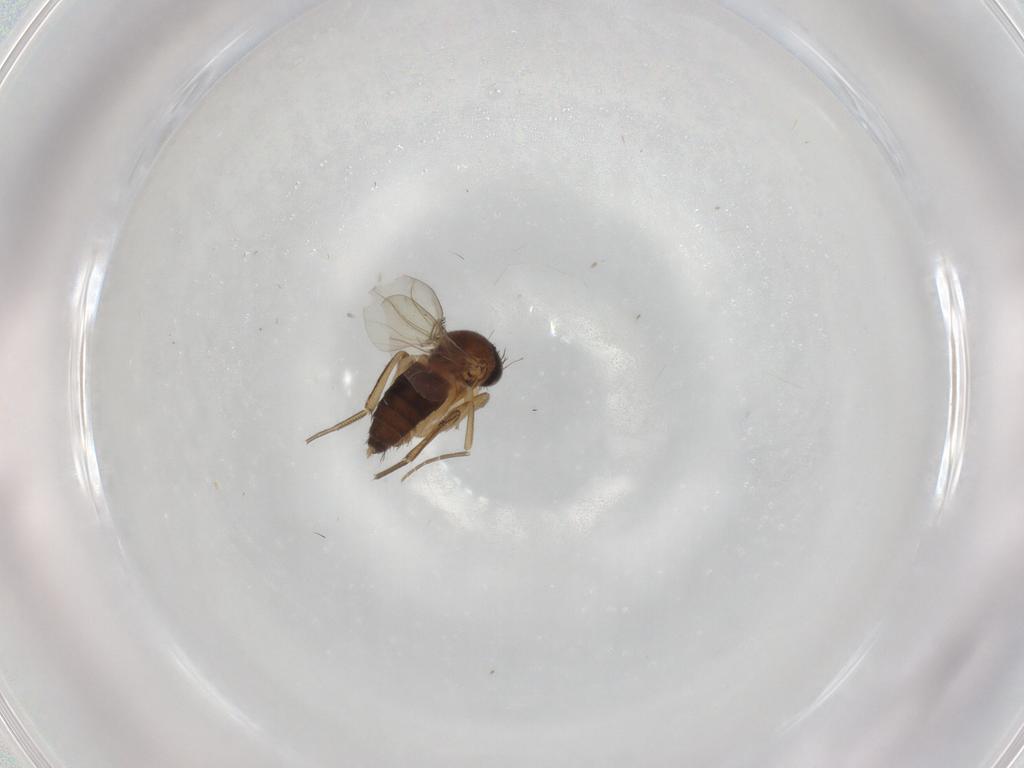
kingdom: Animalia
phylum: Arthropoda
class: Insecta
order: Diptera
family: Phoridae
